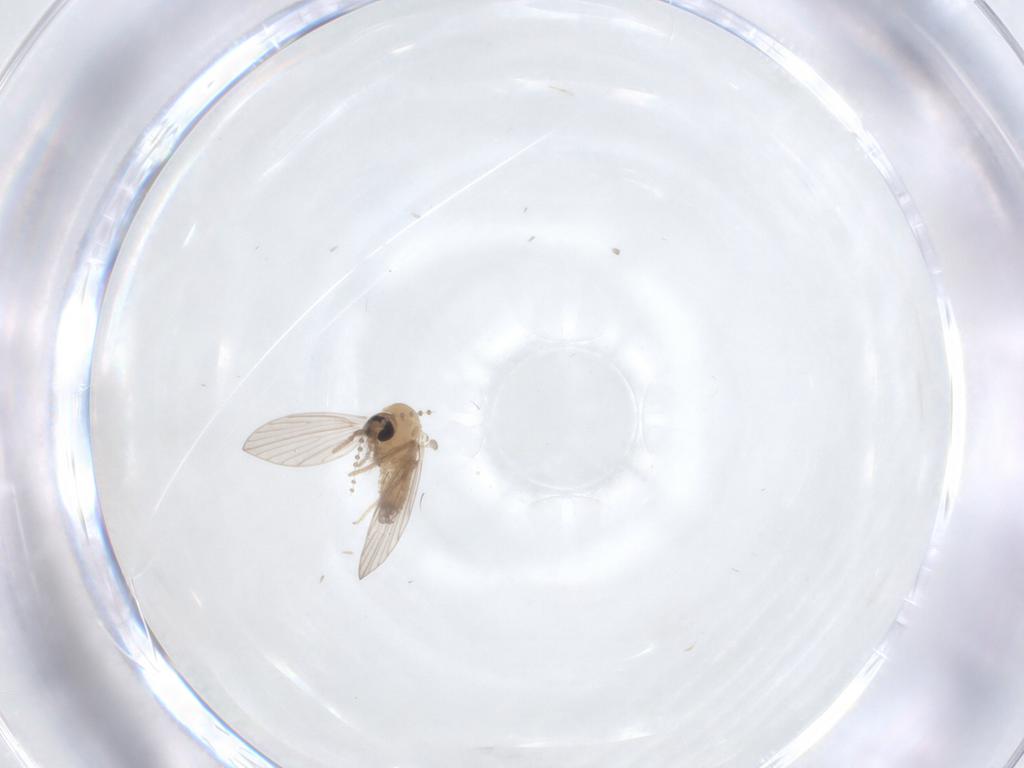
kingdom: Animalia
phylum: Arthropoda
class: Insecta
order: Diptera
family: Psychodidae
